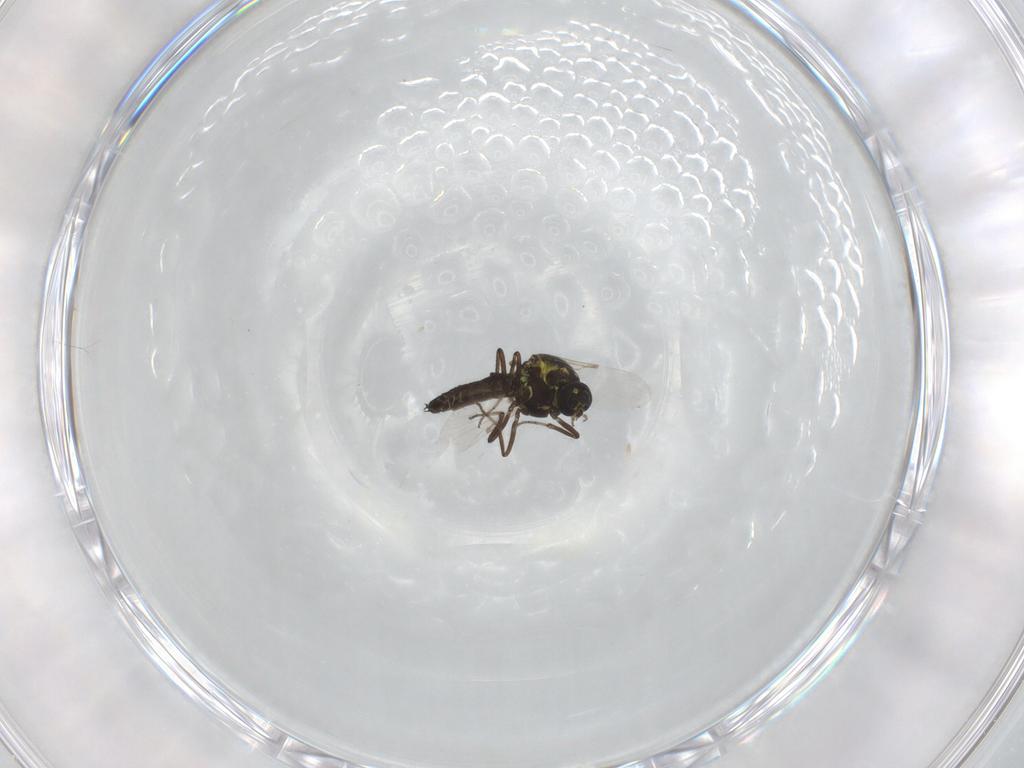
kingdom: Animalia
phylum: Arthropoda
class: Insecta
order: Diptera
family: Ceratopogonidae
